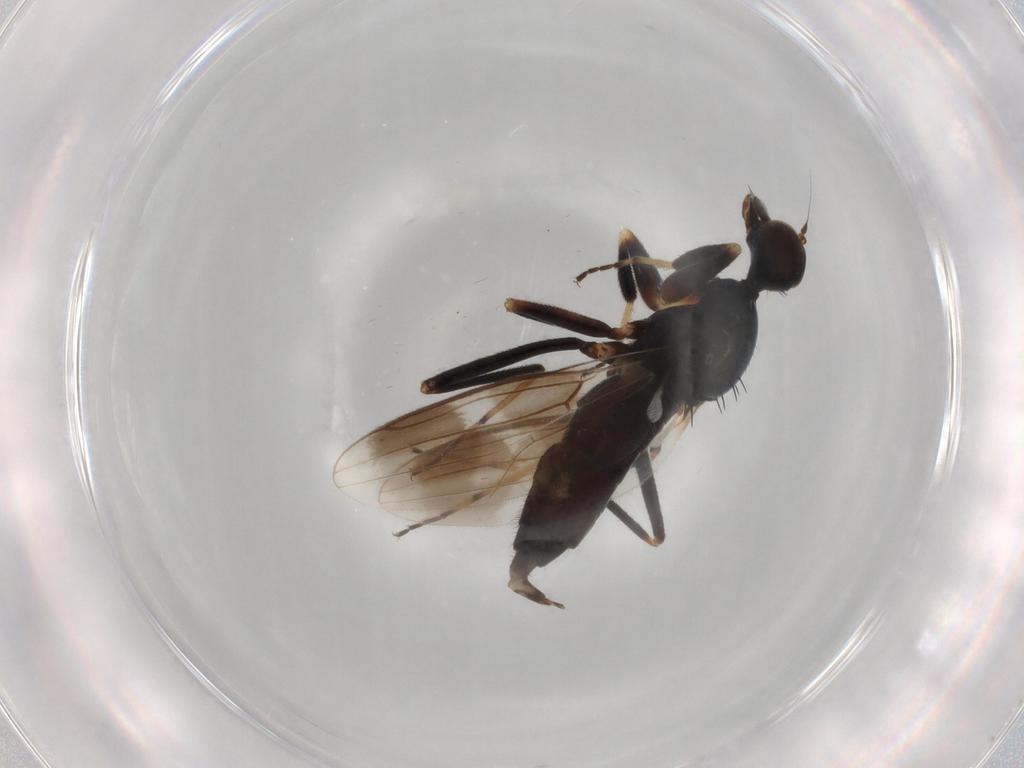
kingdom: Animalia
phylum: Arthropoda
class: Insecta
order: Diptera
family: Hybotidae
